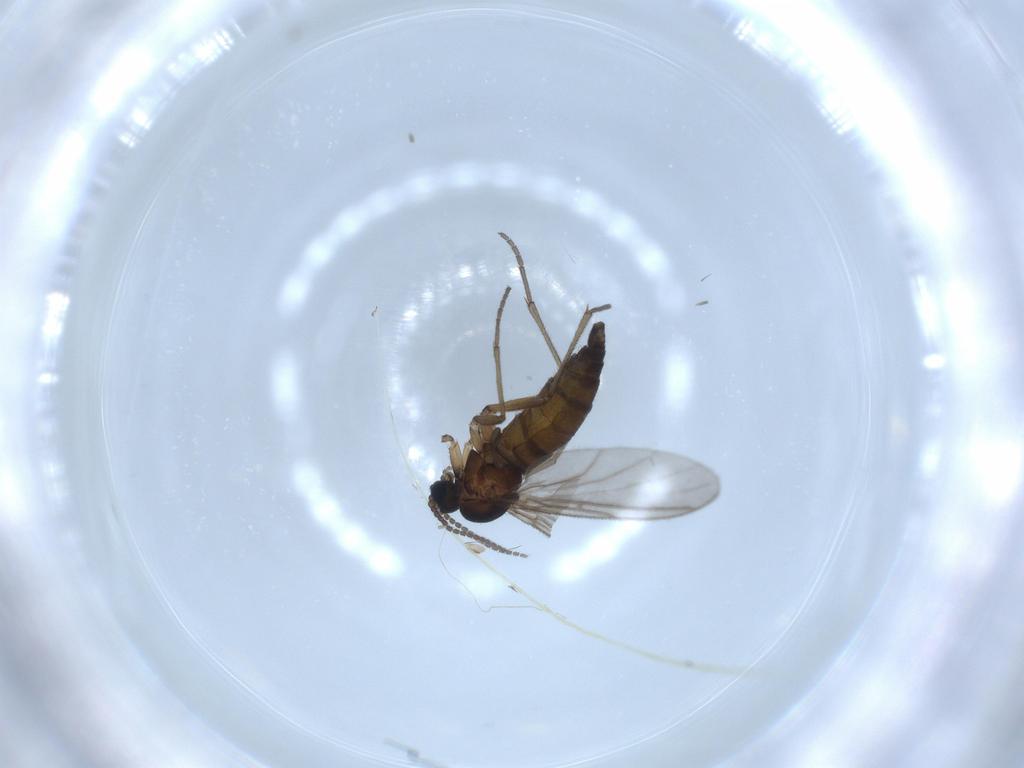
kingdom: Animalia
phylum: Arthropoda
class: Insecta
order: Diptera
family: Sciaridae
